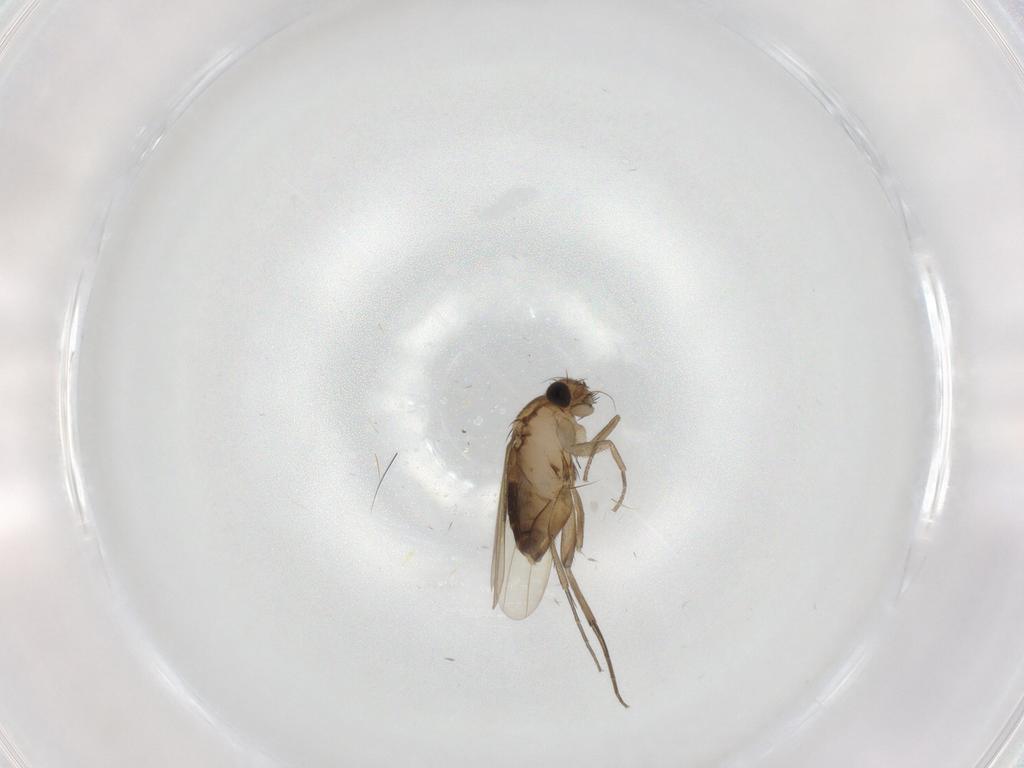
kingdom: Animalia
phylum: Arthropoda
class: Insecta
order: Diptera
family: Phoridae
